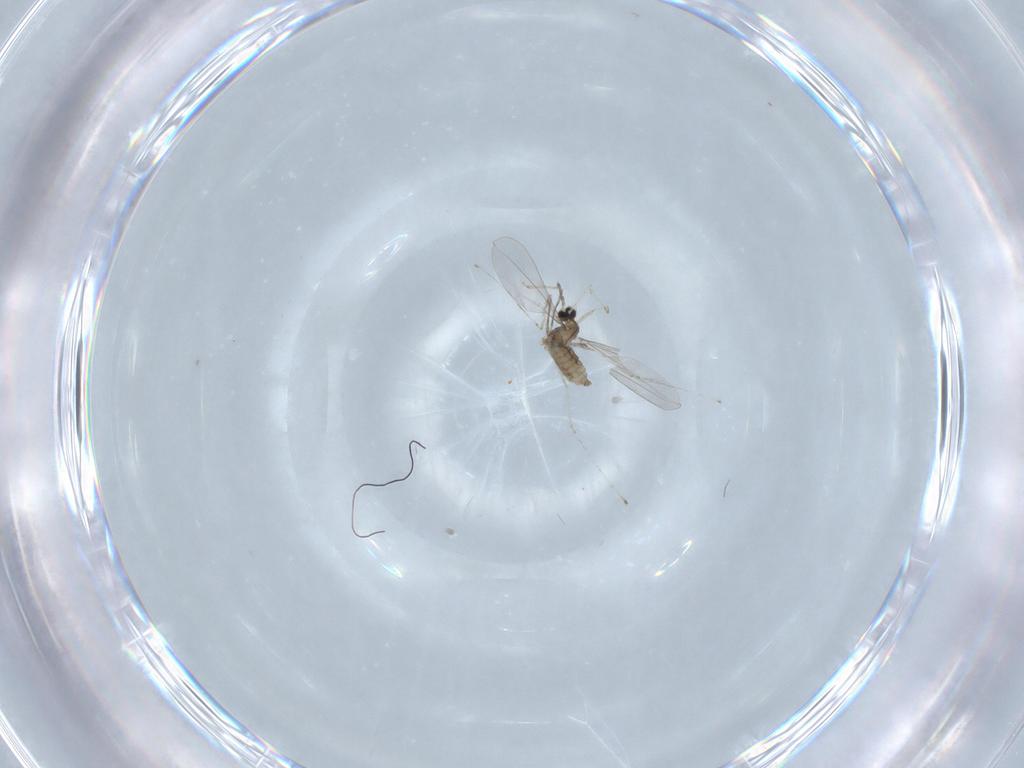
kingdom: Animalia
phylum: Arthropoda
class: Insecta
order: Diptera
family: Cecidomyiidae
